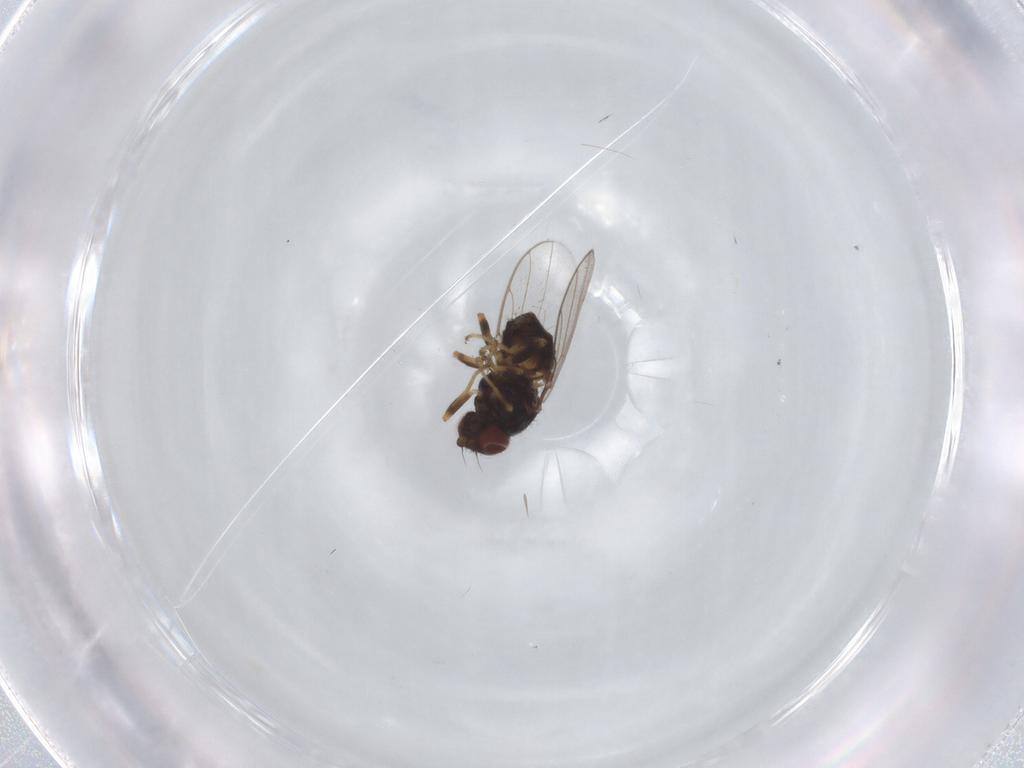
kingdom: Animalia
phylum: Arthropoda
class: Insecta
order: Diptera
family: Chloropidae
